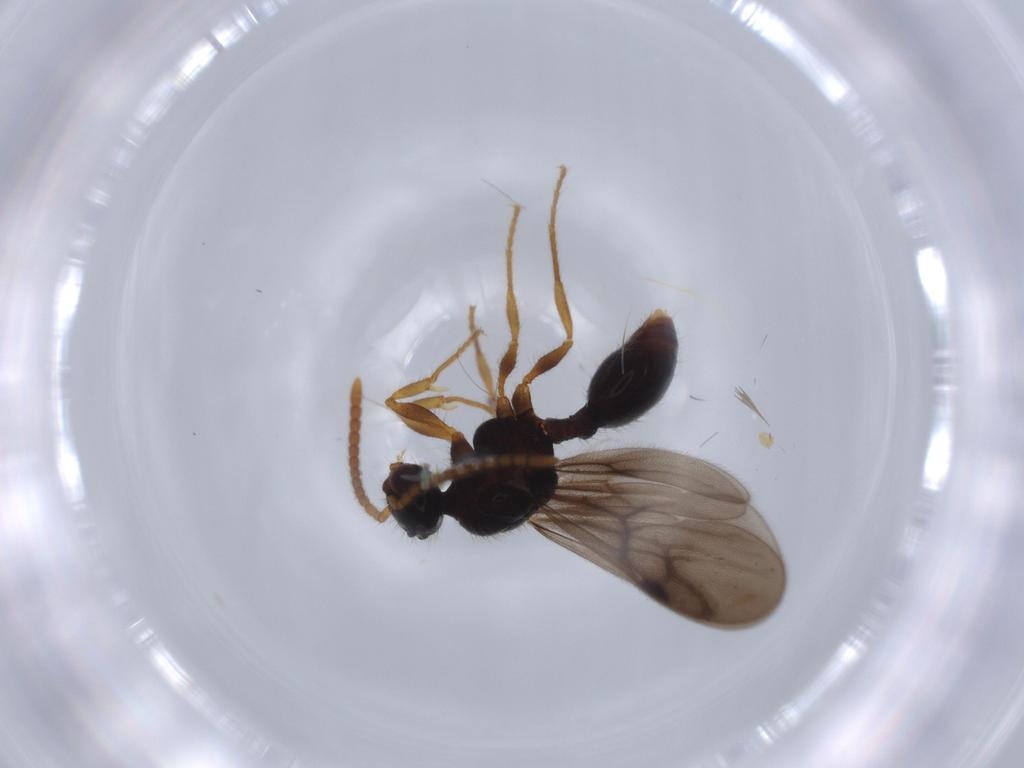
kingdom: Animalia
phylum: Arthropoda
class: Insecta
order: Hymenoptera
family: Formicidae
